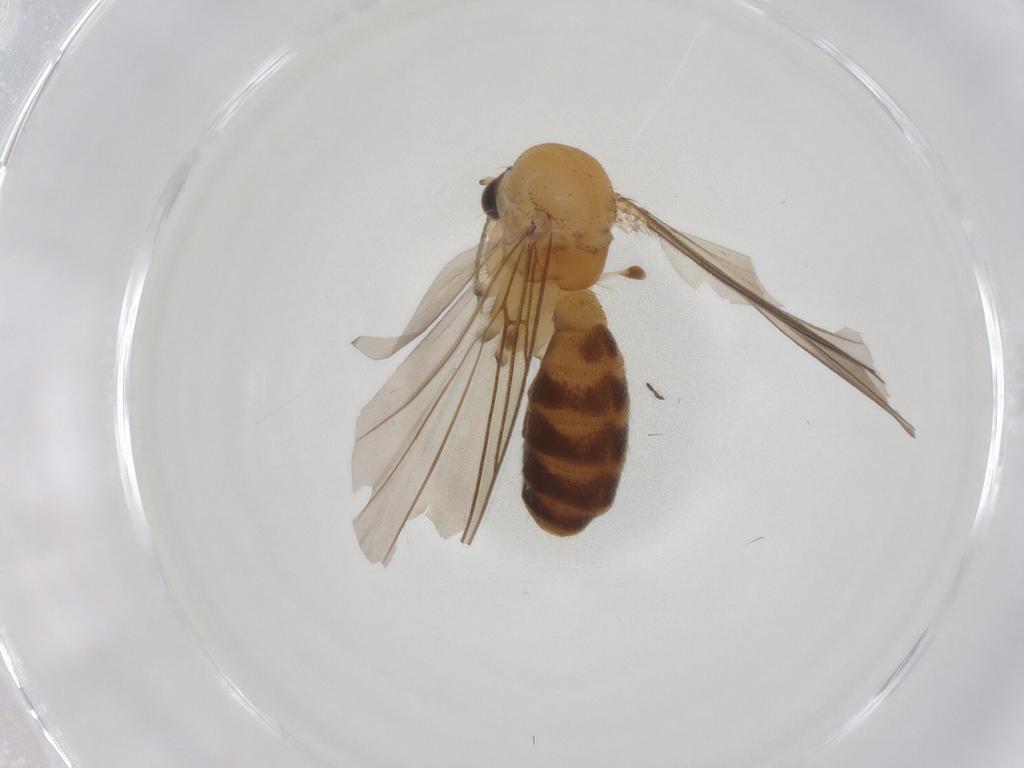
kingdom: Animalia
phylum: Arthropoda
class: Insecta
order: Diptera
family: Mycetophilidae
